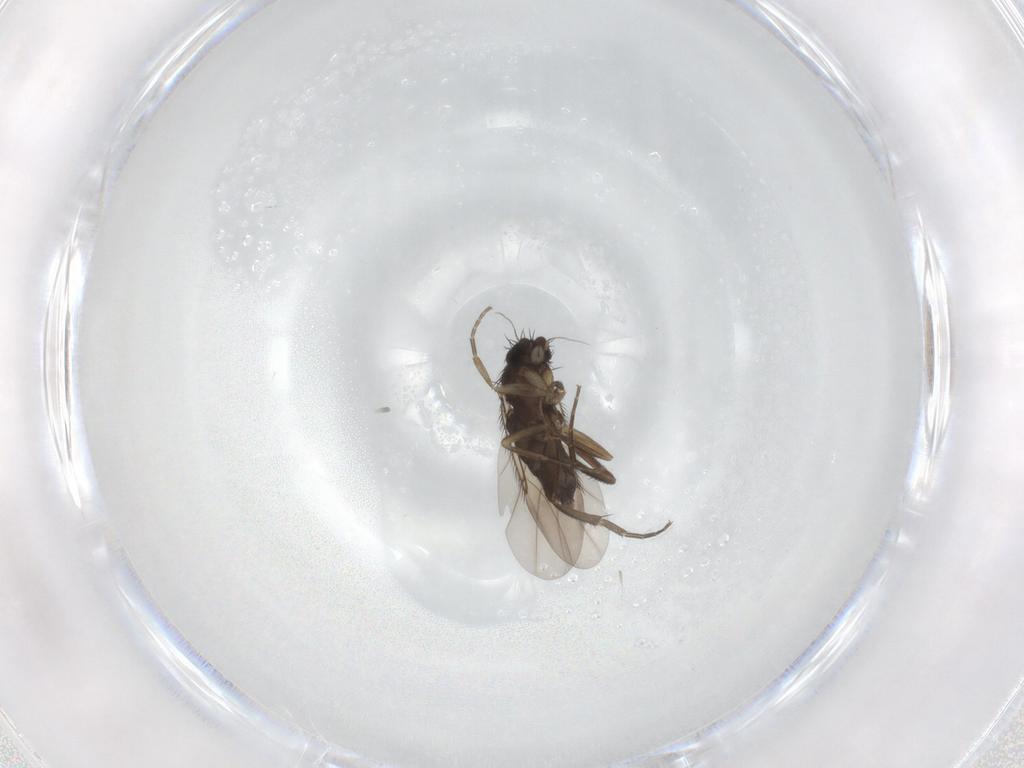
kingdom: Animalia
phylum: Arthropoda
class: Insecta
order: Diptera
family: Phoridae
